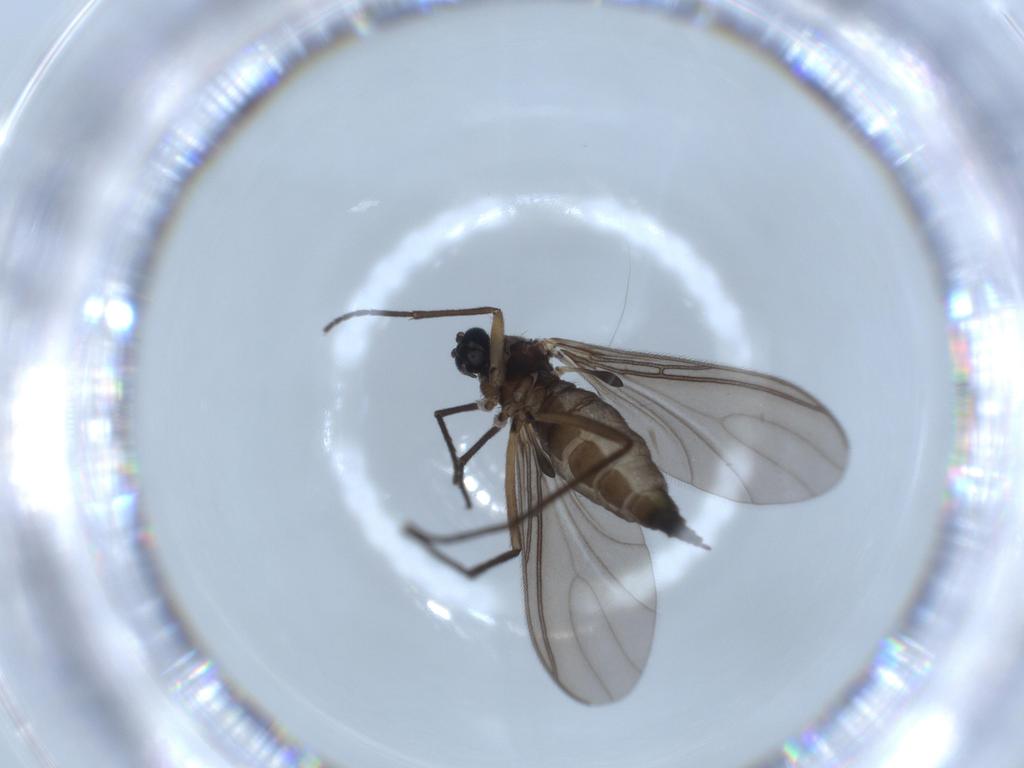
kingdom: Animalia
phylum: Arthropoda
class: Insecta
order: Diptera
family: Sciaridae
